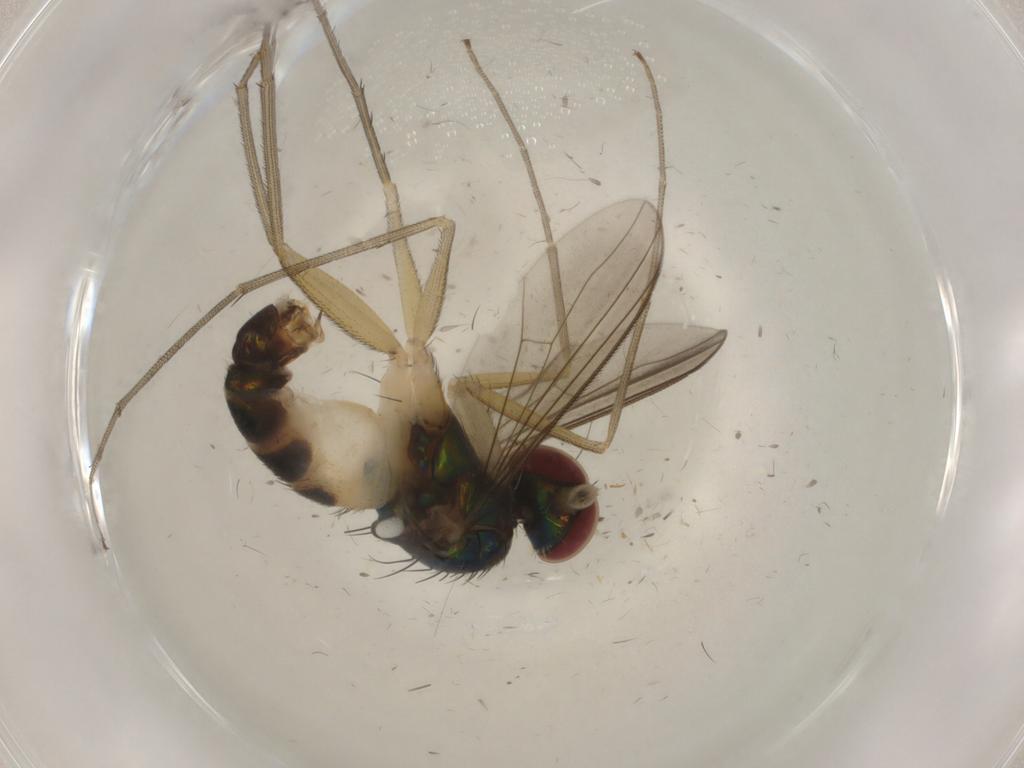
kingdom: Animalia
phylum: Arthropoda
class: Insecta
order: Diptera
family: Dolichopodidae
